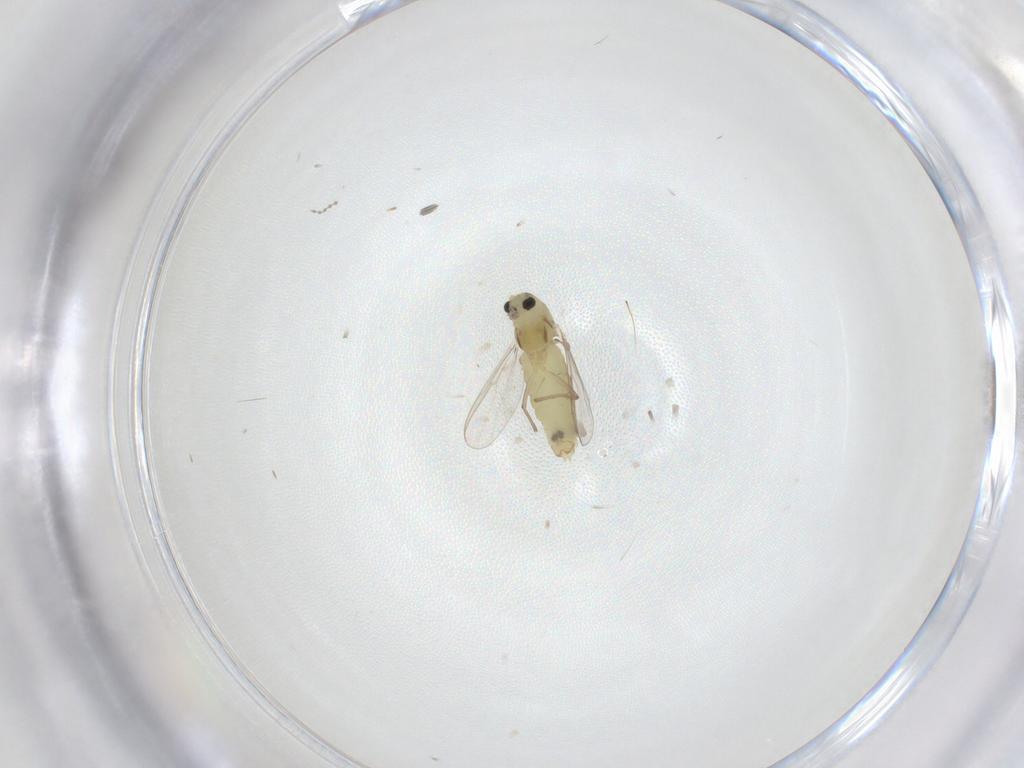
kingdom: Animalia
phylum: Arthropoda
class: Insecta
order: Diptera
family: Chironomidae
